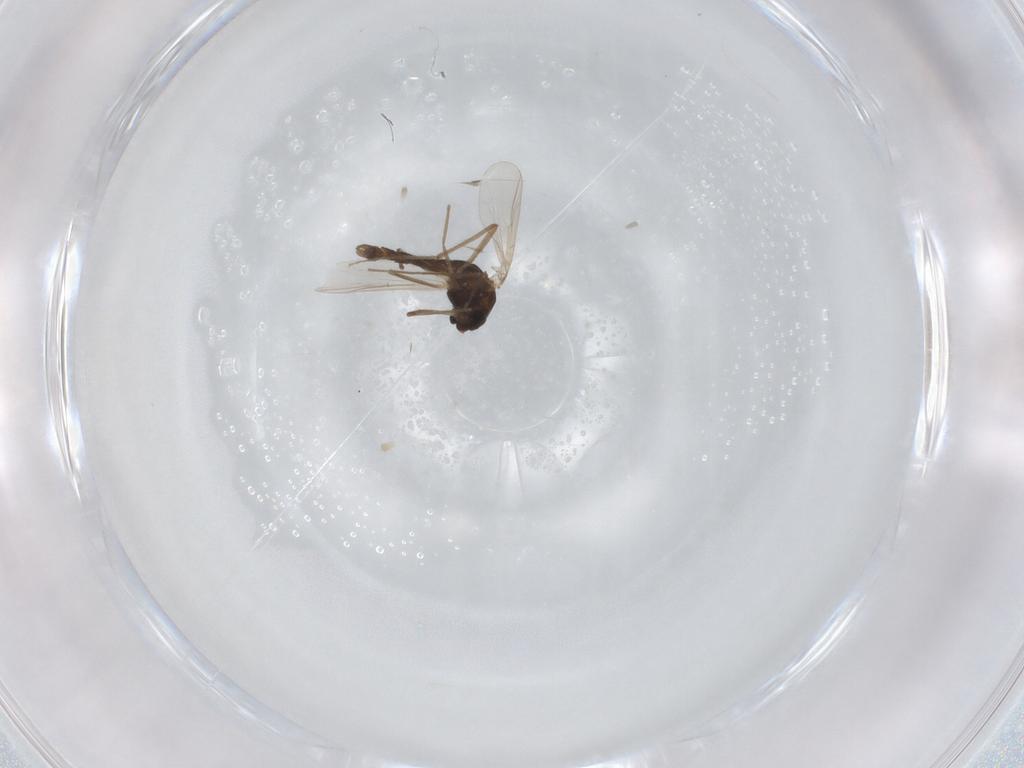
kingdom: Animalia
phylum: Arthropoda
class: Insecta
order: Diptera
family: Chironomidae
